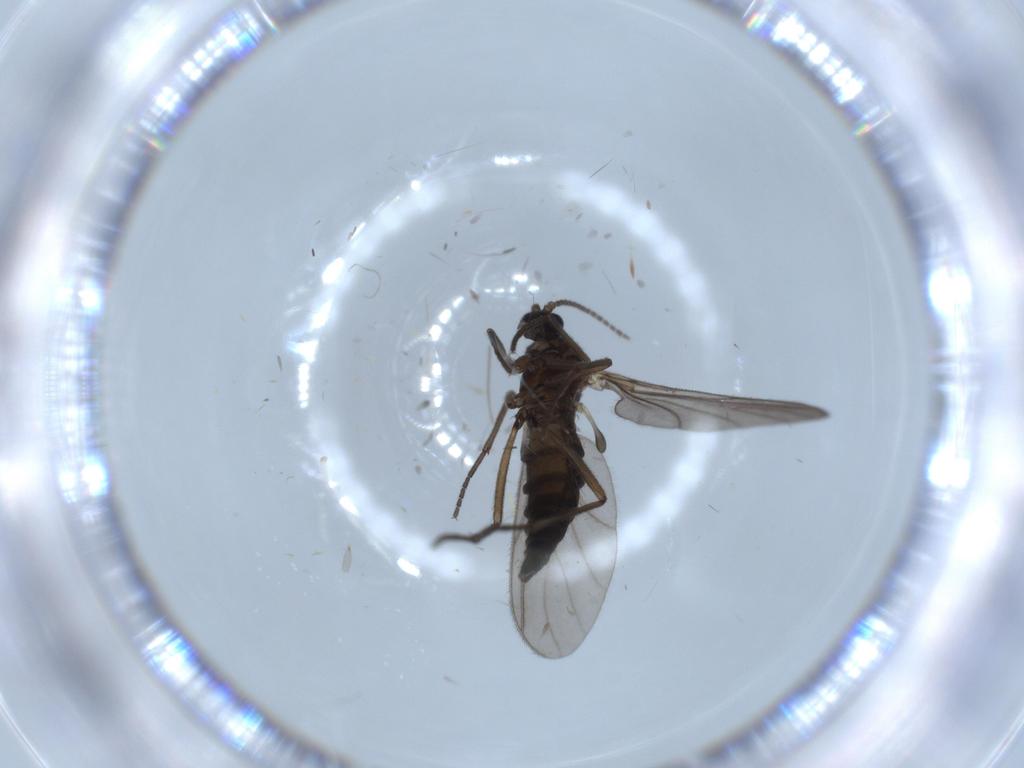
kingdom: Animalia
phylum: Arthropoda
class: Insecta
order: Diptera
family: Sciaridae
